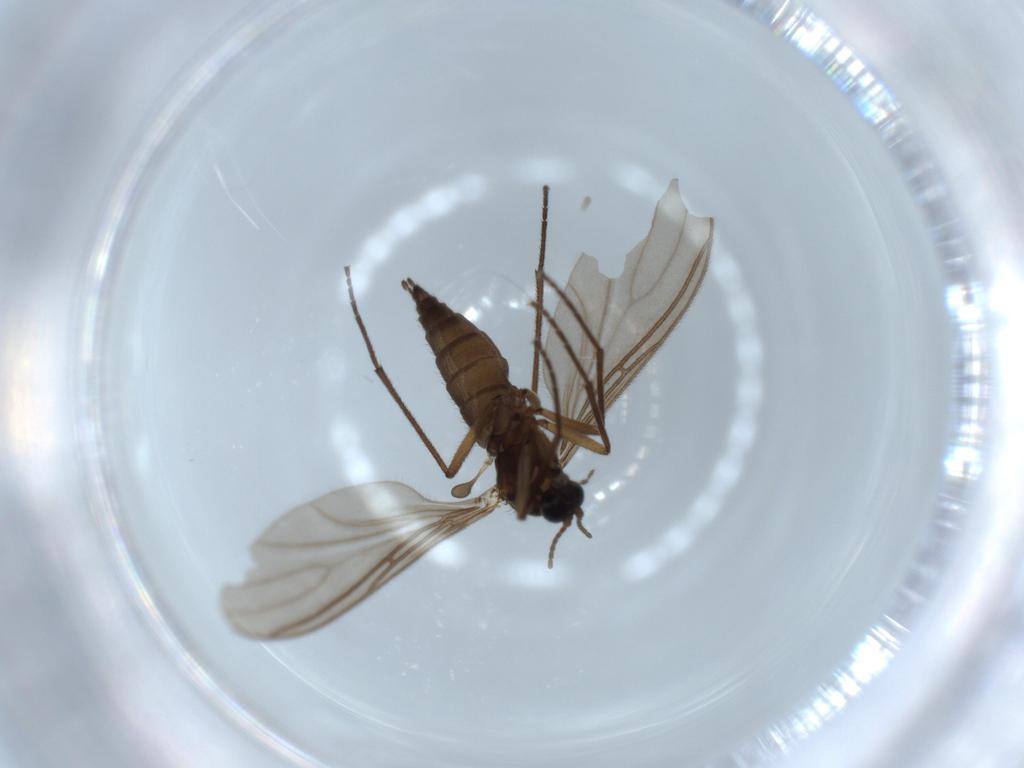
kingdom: Animalia
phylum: Arthropoda
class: Insecta
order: Diptera
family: Sciaridae
